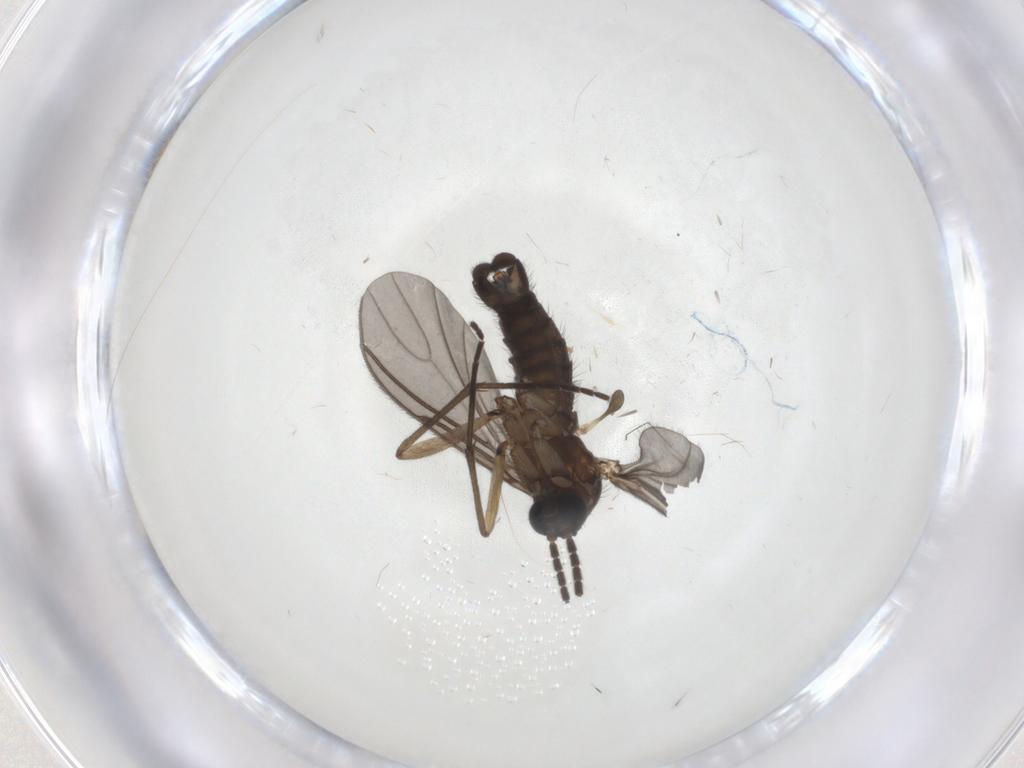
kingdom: Animalia
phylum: Arthropoda
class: Insecta
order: Diptera
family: Sciaridae
